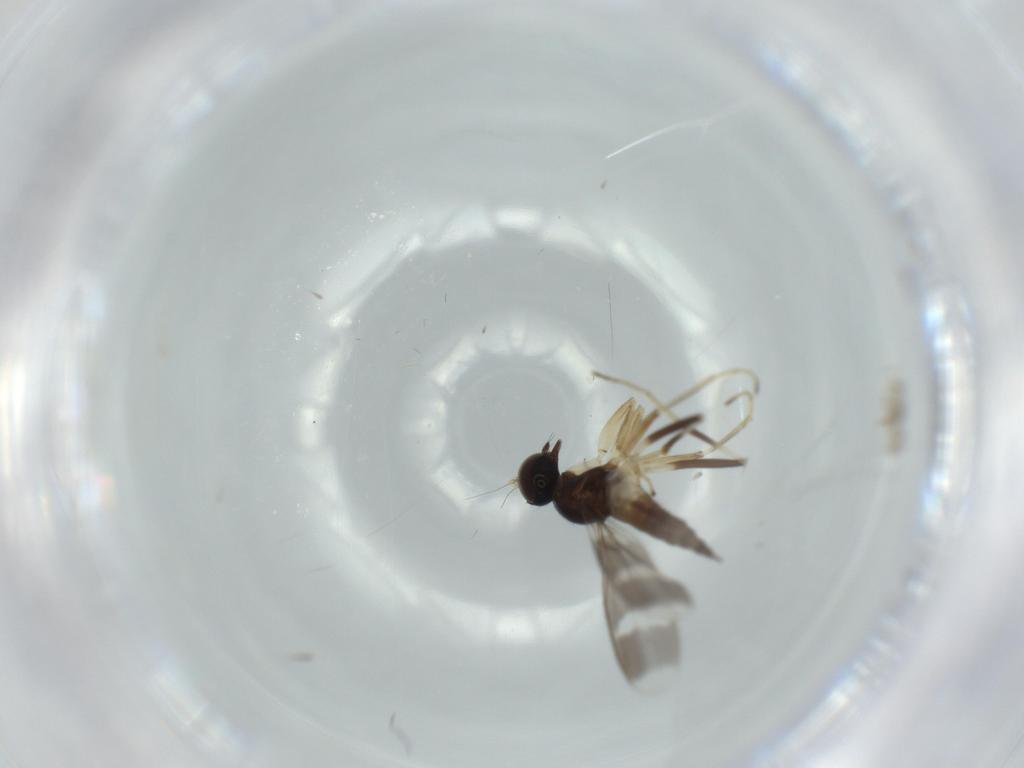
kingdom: Animalia
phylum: Arthropoda
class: Insecta
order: Diptera
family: Hybotidae
